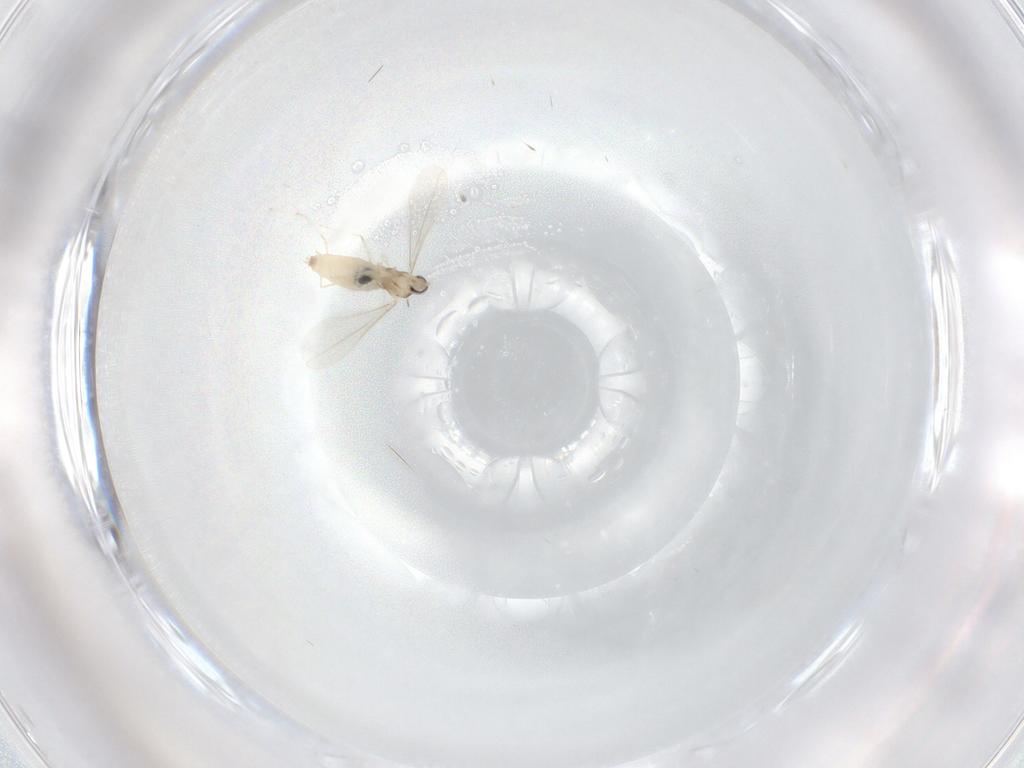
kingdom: Animalia
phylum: Arthropoda
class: Insecta
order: Diptera
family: Cecidomyiidae
